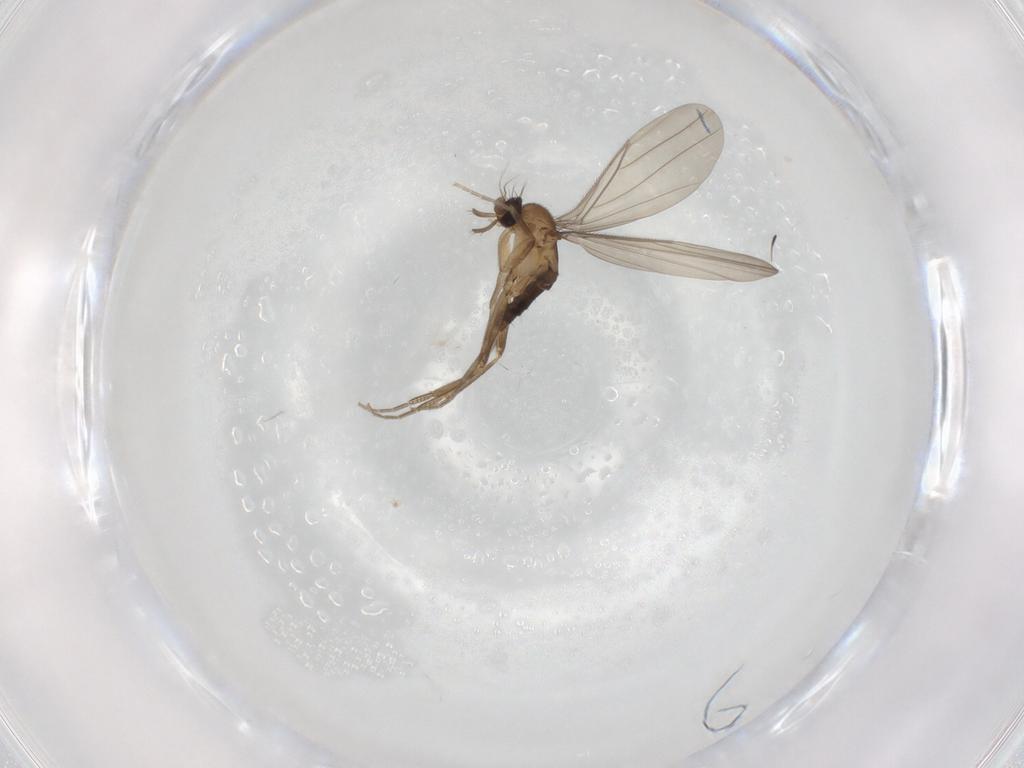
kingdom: Animalia
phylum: Arthropoda
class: Insecta
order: Diptera
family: Phoridae
